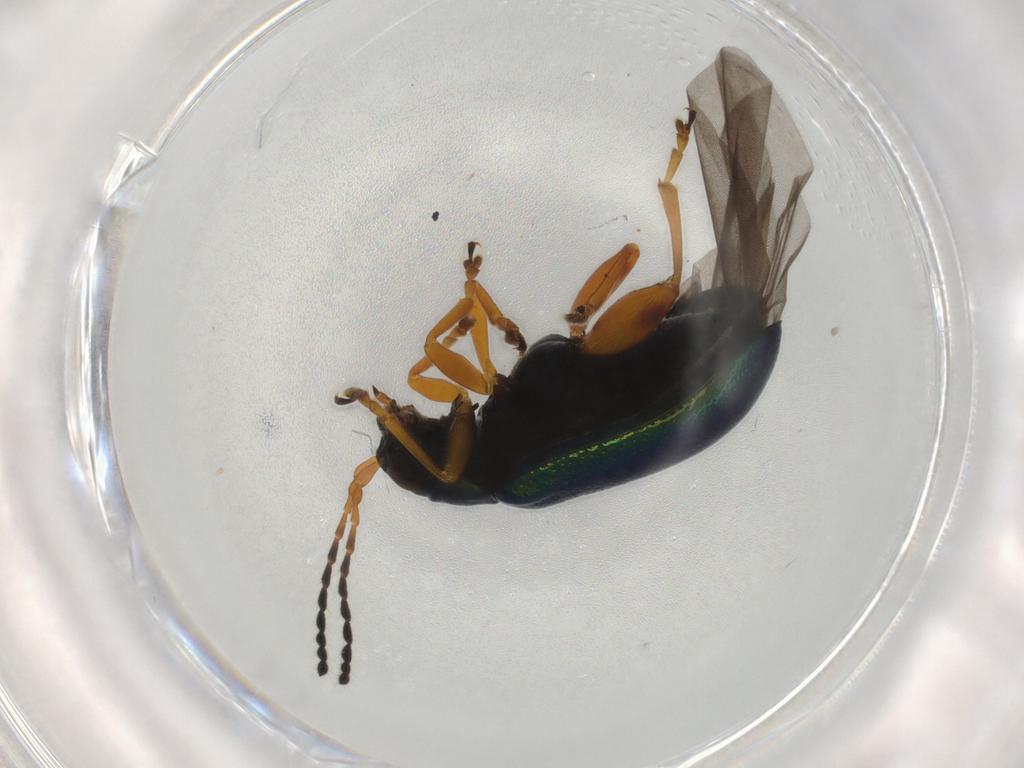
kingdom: Animalia
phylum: Arthropoda
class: Insecta
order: Coleoptera
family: Chrysomelidae
